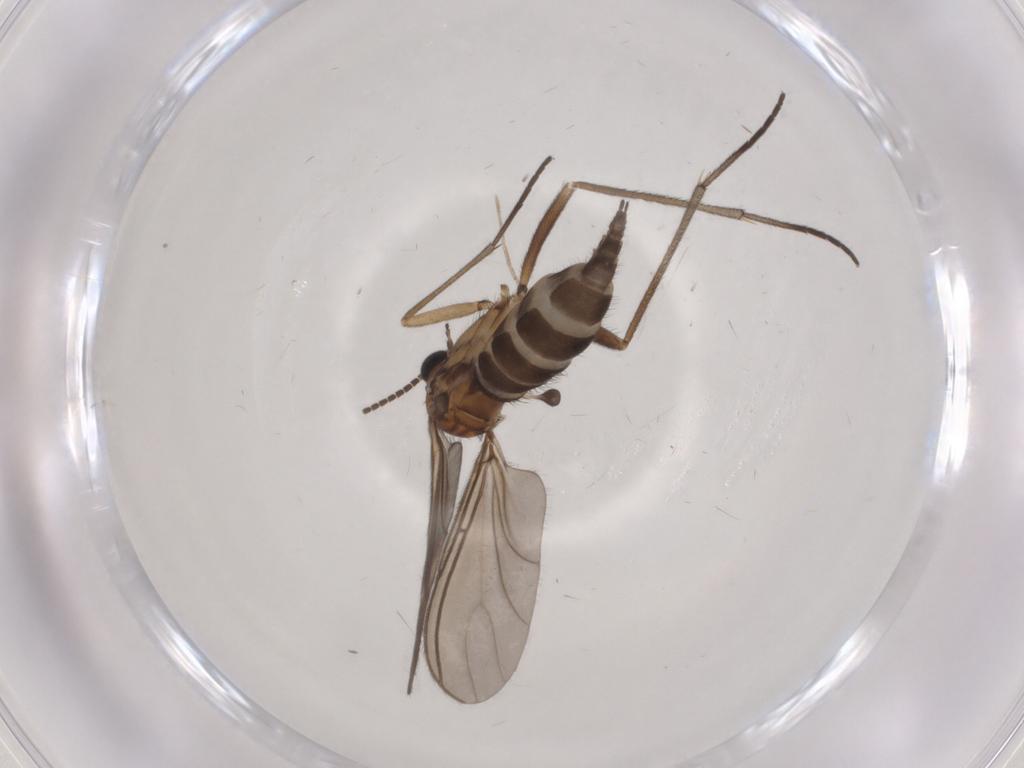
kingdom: Animalia
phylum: Arthropoda
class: Insecta
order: Diptera
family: Sciaridae
